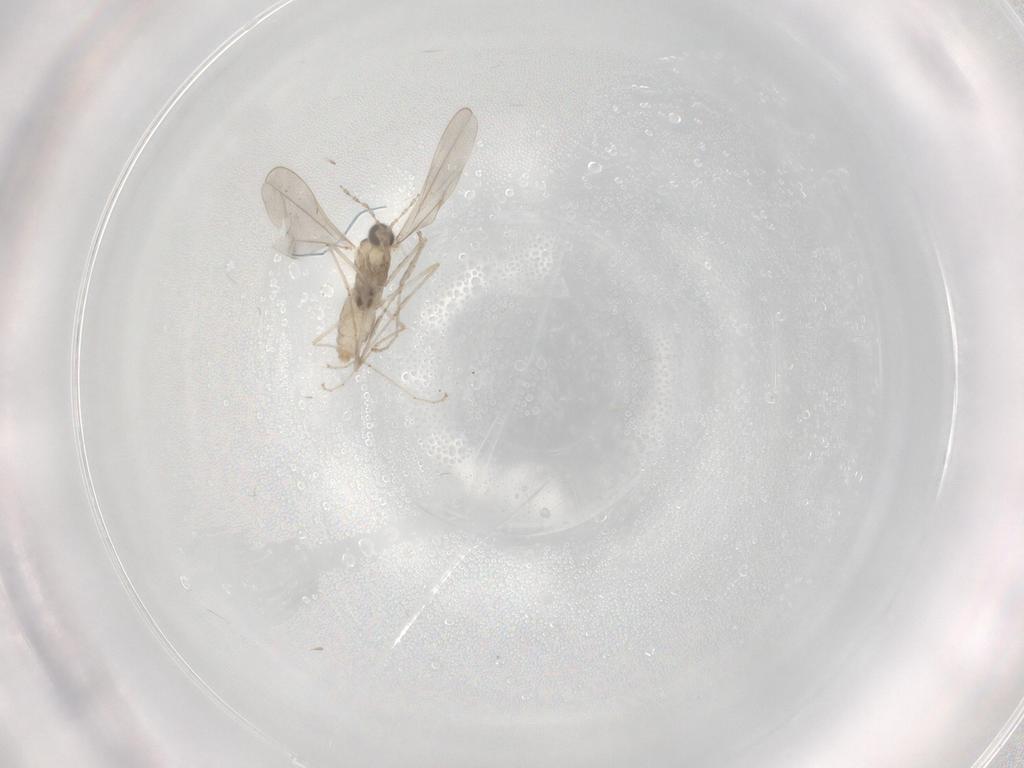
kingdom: Animalia
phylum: Arthropoda
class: Insecta
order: Diptera
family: Cecidomyiidae
